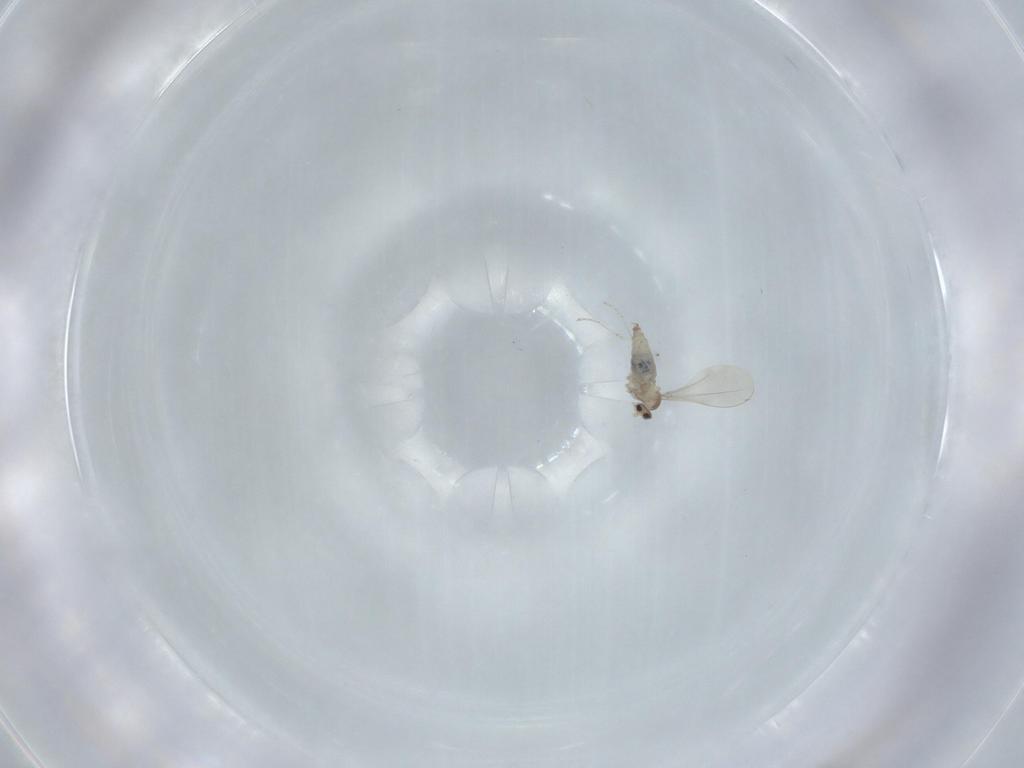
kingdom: Animalia
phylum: Arthropoda
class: Insecta
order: Diptera
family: Cecidomyiidae
